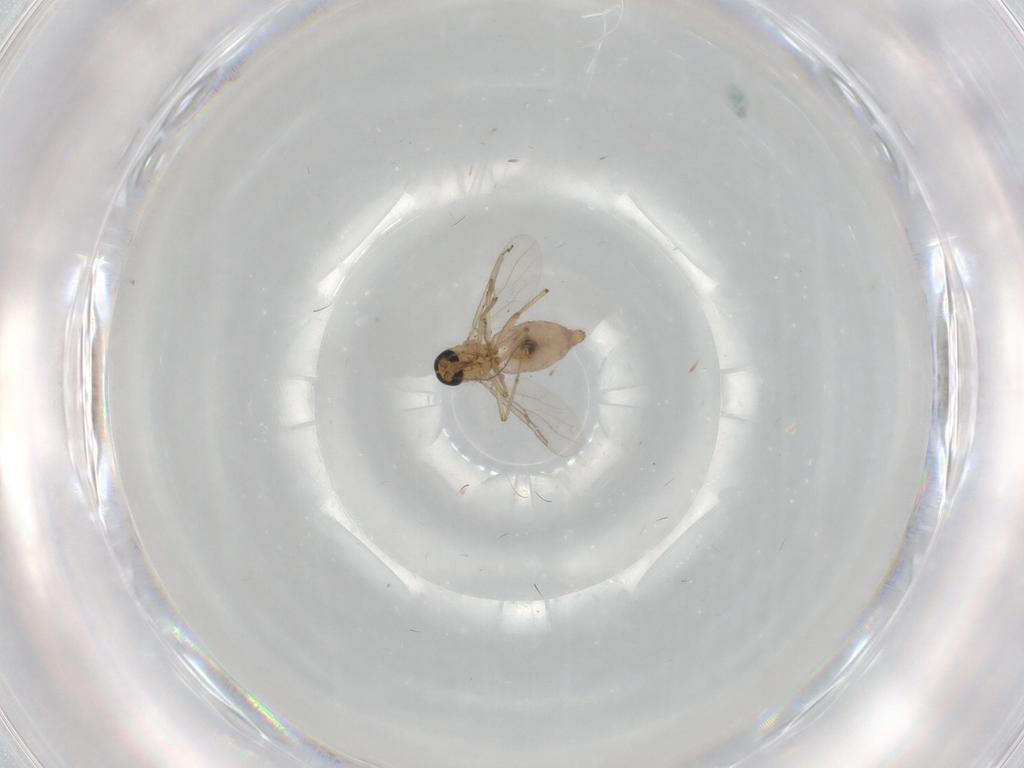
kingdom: Animalia
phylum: Arthropoda
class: Insecta
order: Diptera
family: Ceratopogonidae
